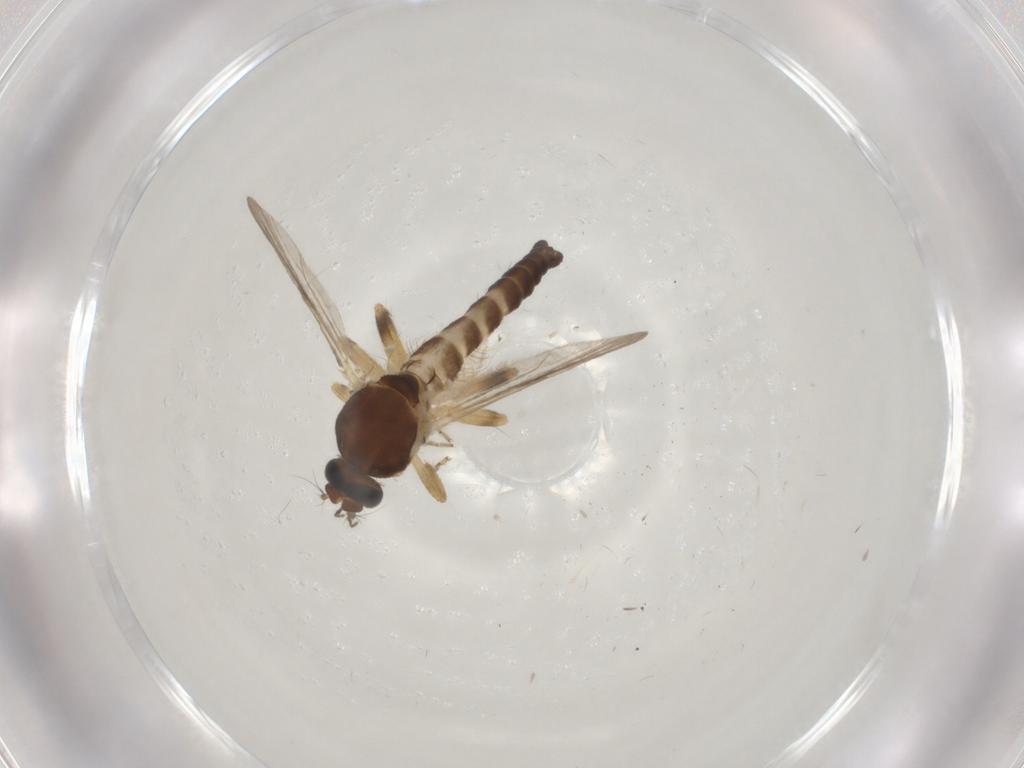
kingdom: Animalia
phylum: Arthropoda
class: Insecta
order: Diptera
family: Ceratopogonidae
